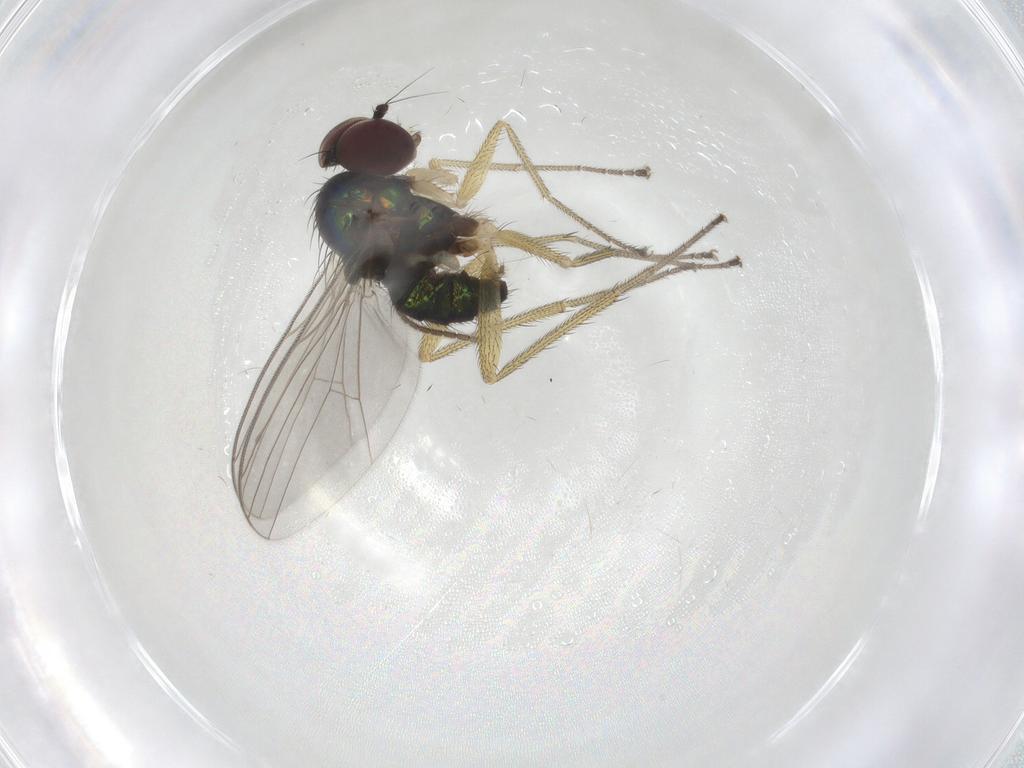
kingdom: Animalia
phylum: Arthropoda
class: Insecta
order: Diptera
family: Dolichopodidae
